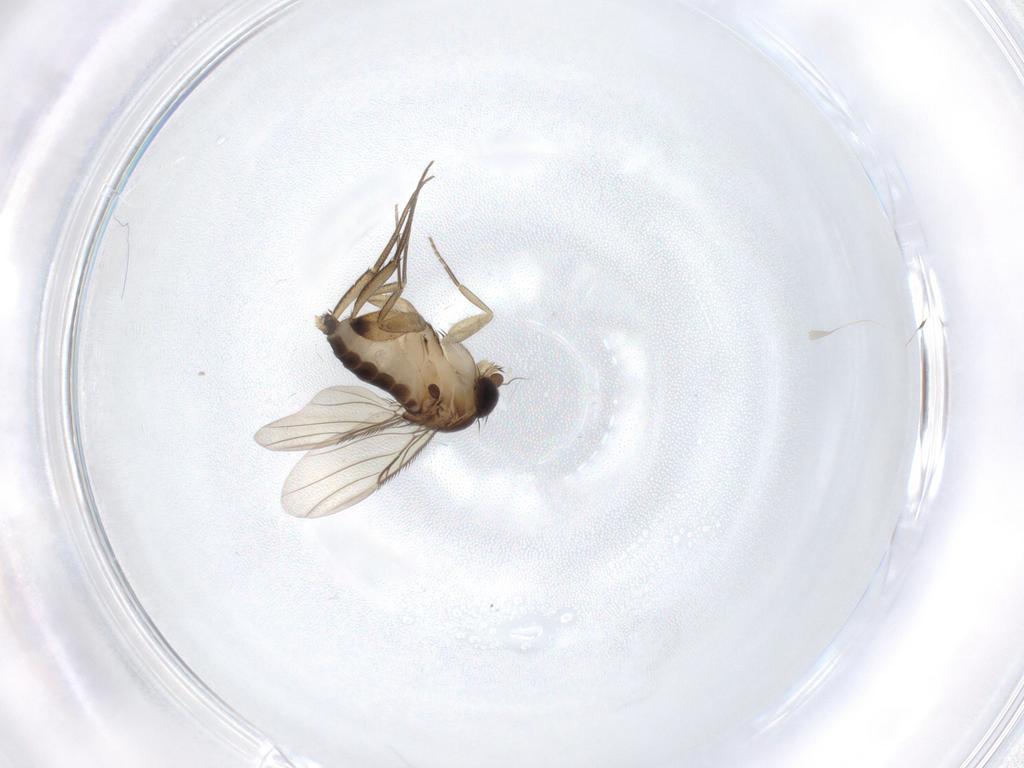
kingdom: Animalia
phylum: Arthropoda
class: Insecta
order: Diptera
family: Phoridae
